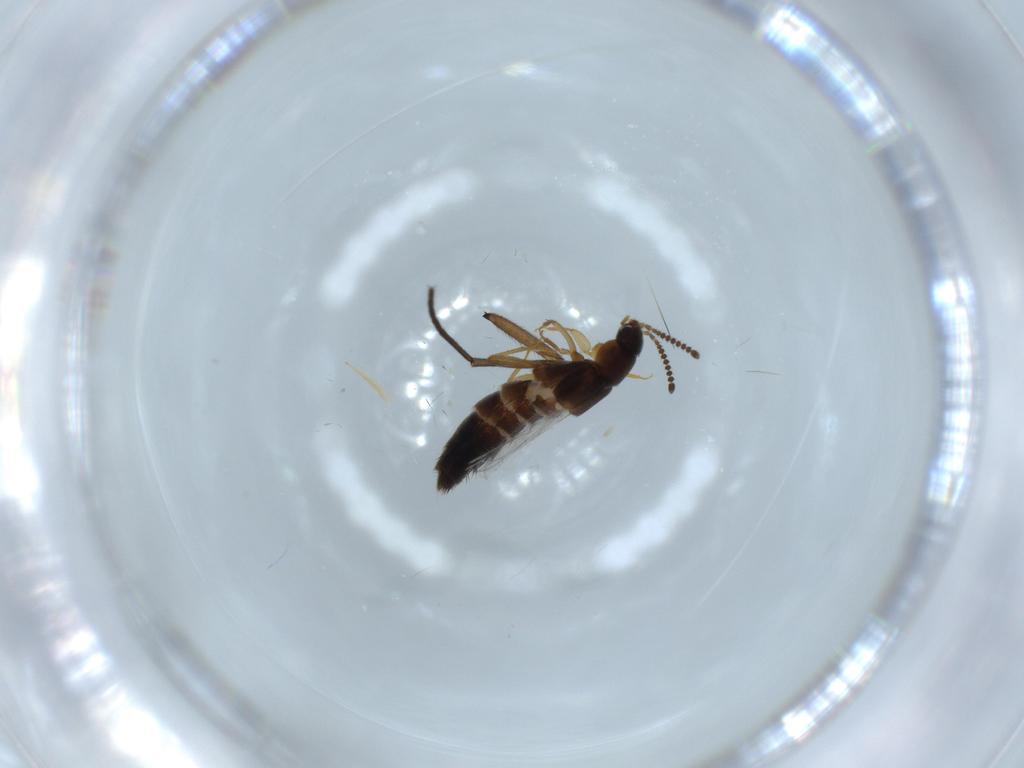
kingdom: Animalia
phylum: Arthropoda
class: Insecta
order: Coleoptera
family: Staphylinidae
